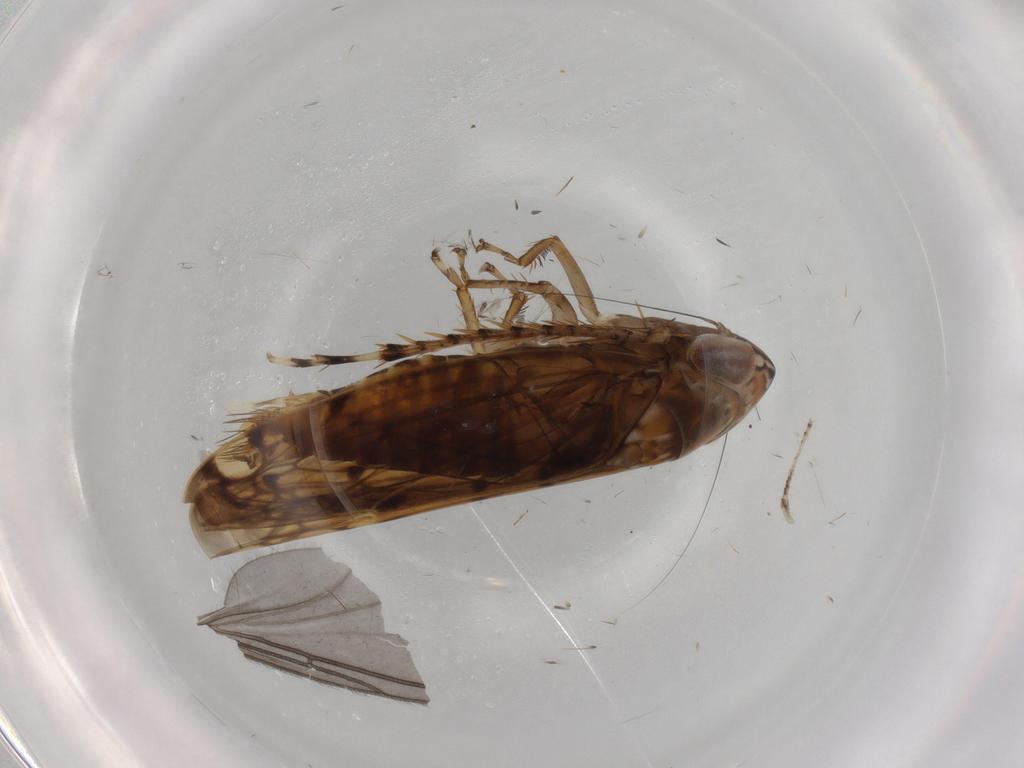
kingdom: Animalia
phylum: Arthropoda
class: Insecta
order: Hemiptera
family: Cicadellidae
